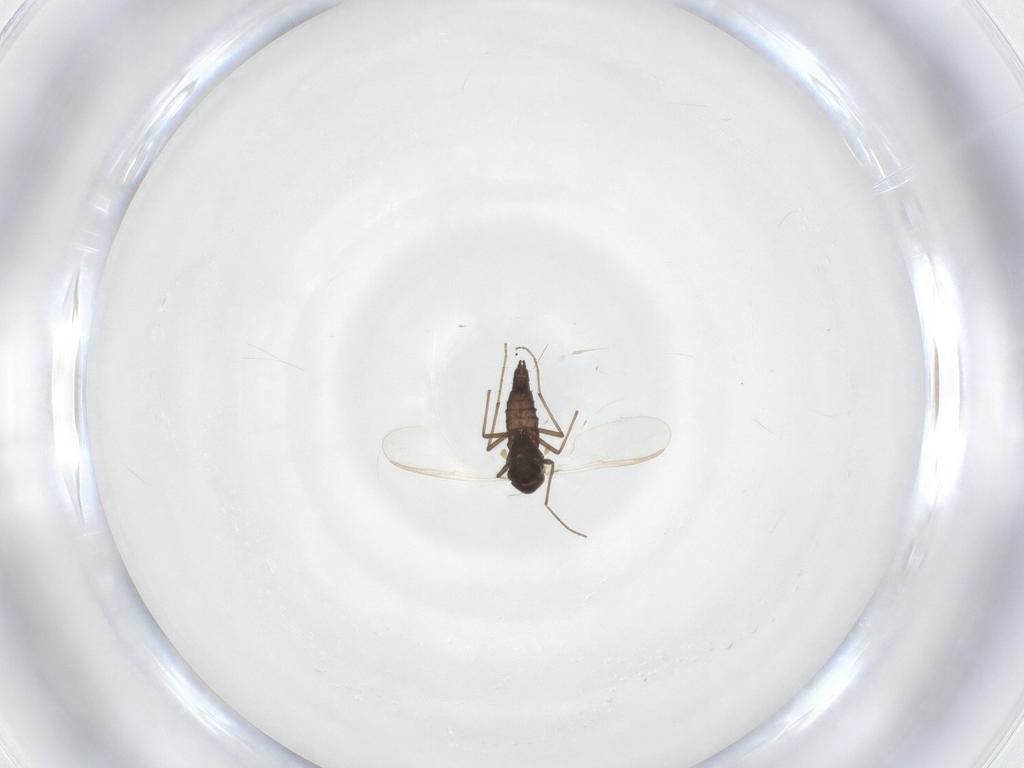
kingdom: Animalia
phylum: Arthropoda
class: Insecta
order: Diptera
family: Chironomidae
